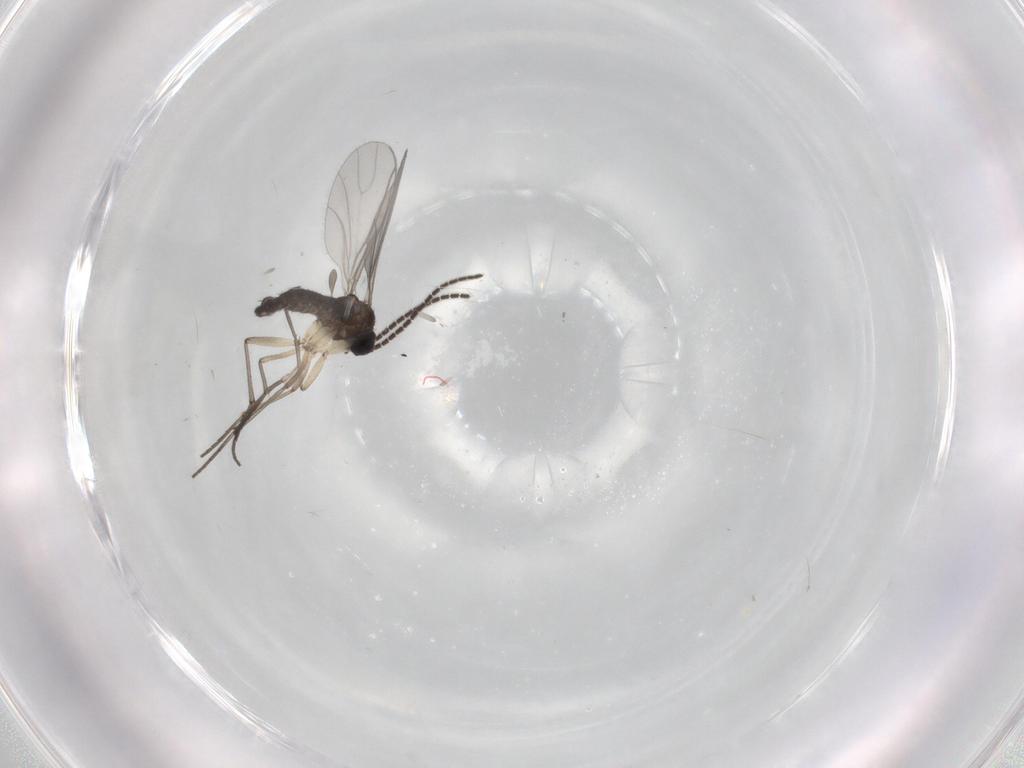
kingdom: Animalia
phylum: Arthropoda
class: Insecta
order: Diptera
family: Sciaridae
